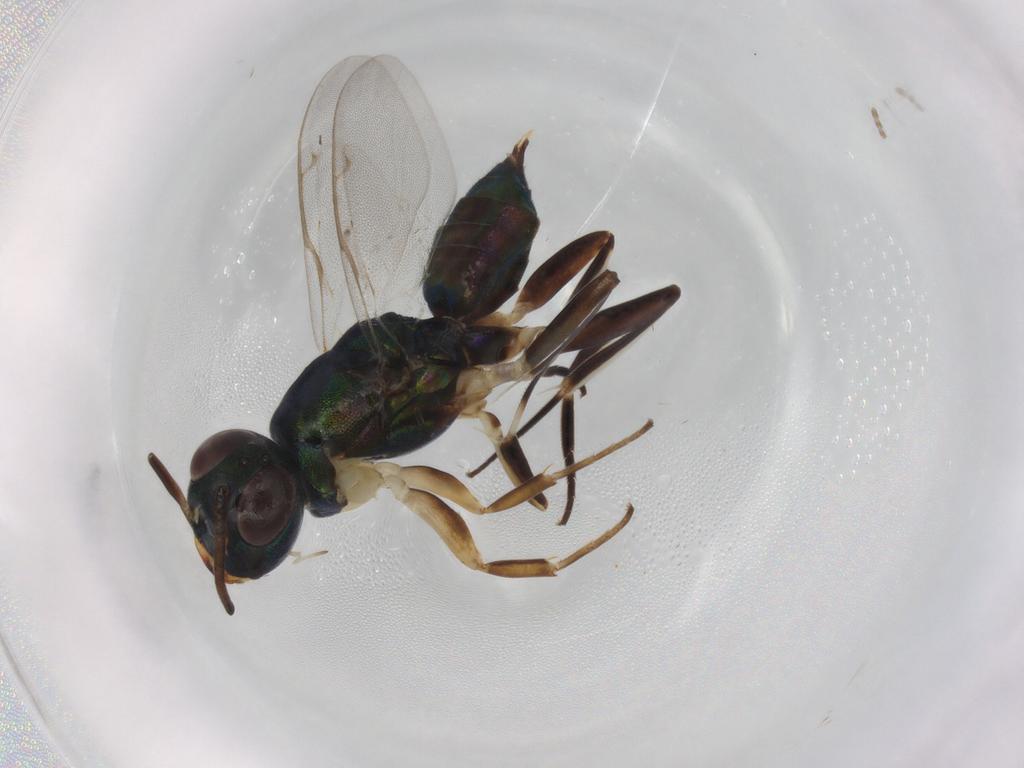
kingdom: Animalia
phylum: Arthropoda
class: Insecta
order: Hymenoptera
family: Eupelmidae
